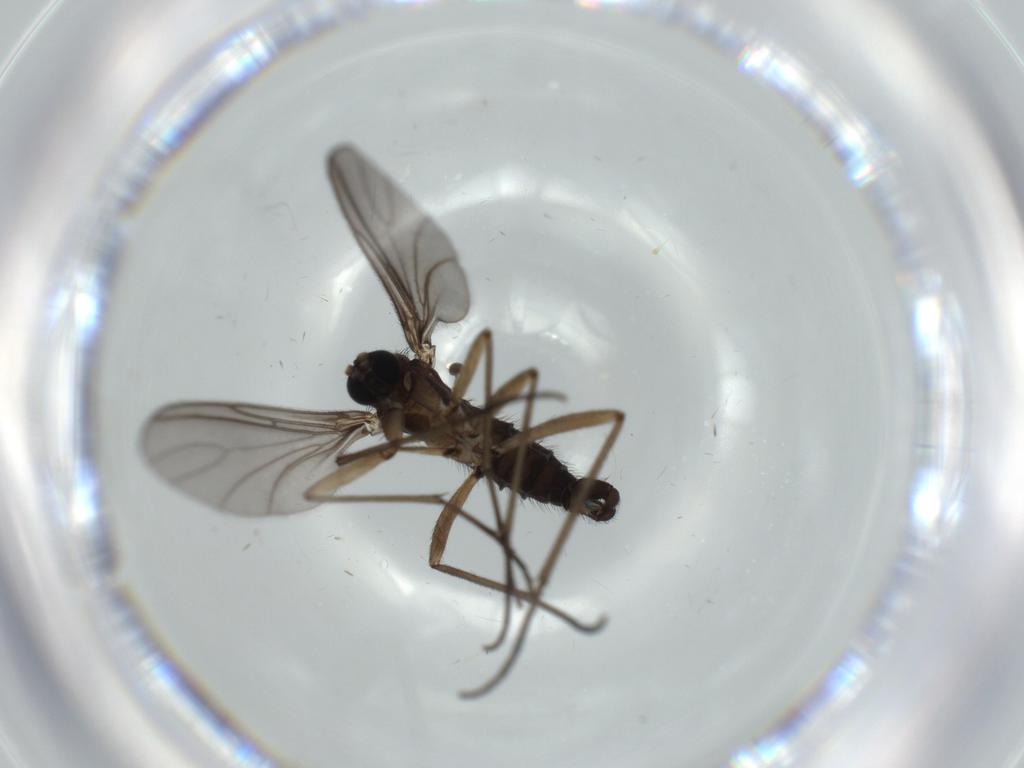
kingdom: Animalia
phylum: Arthropoda
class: Insecta
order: Diptera
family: Sciaridae
